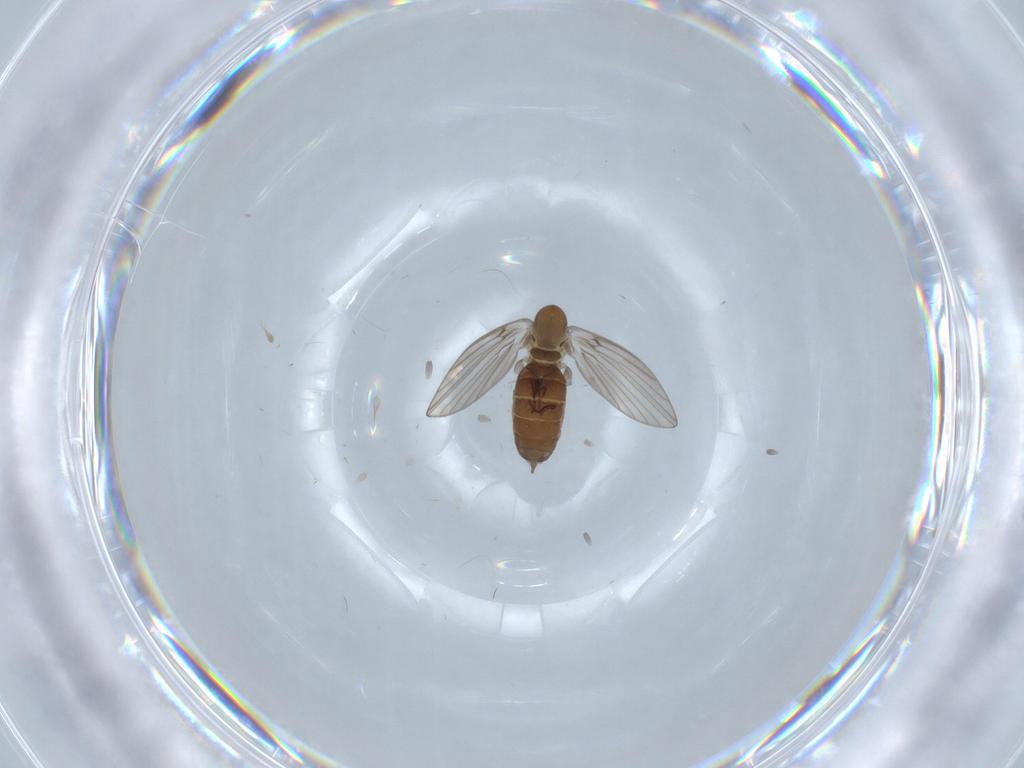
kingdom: Animalia
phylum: Arthropoda
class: Insecta
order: Diptera
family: Psychodidae
